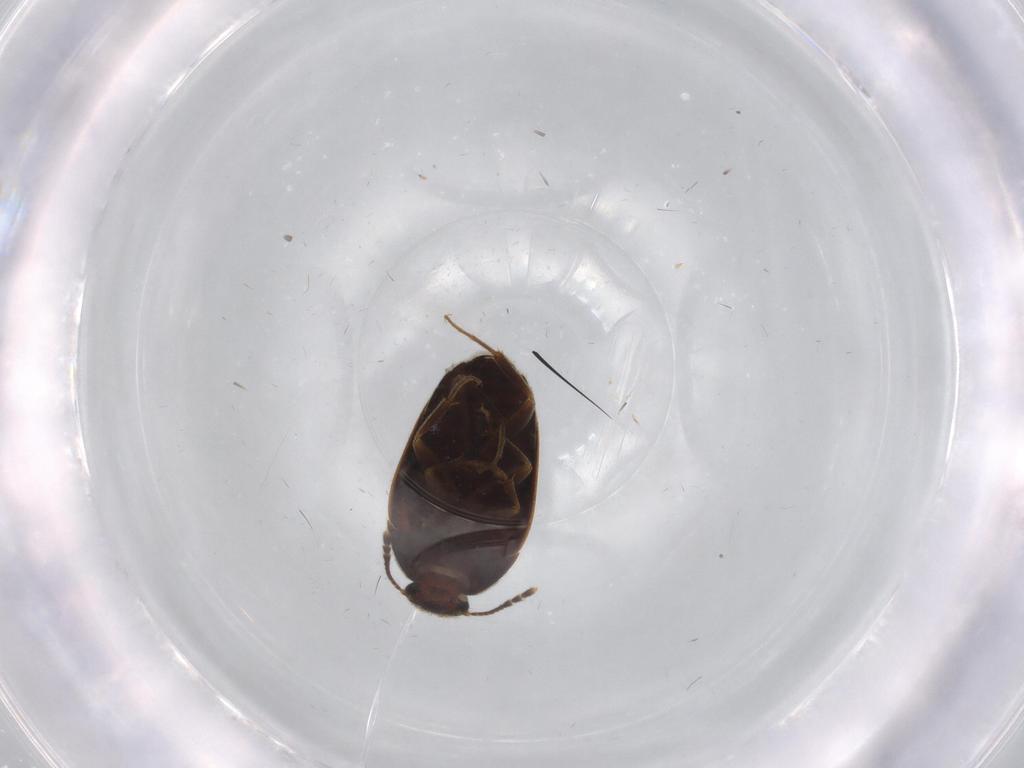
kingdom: Animalia
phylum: Arthropoda
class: Insecta
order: Coleoptera
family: Mycetophagidae
